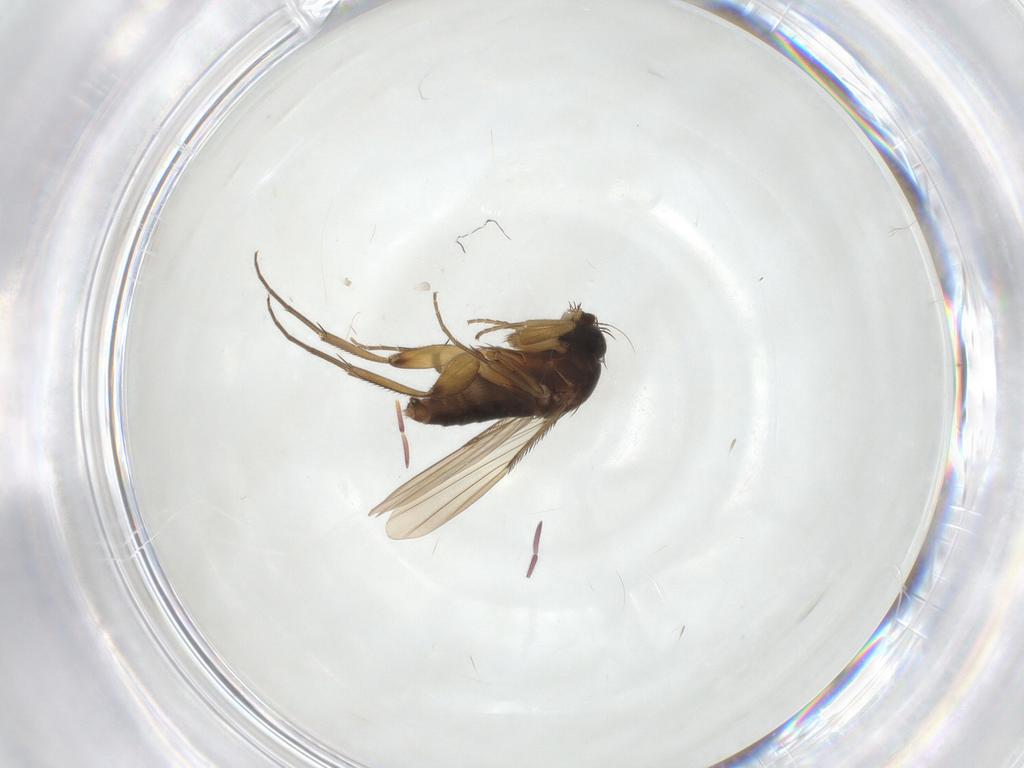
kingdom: Animalia
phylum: Arthropoda
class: Insecta
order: Diptera
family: Phoridae
